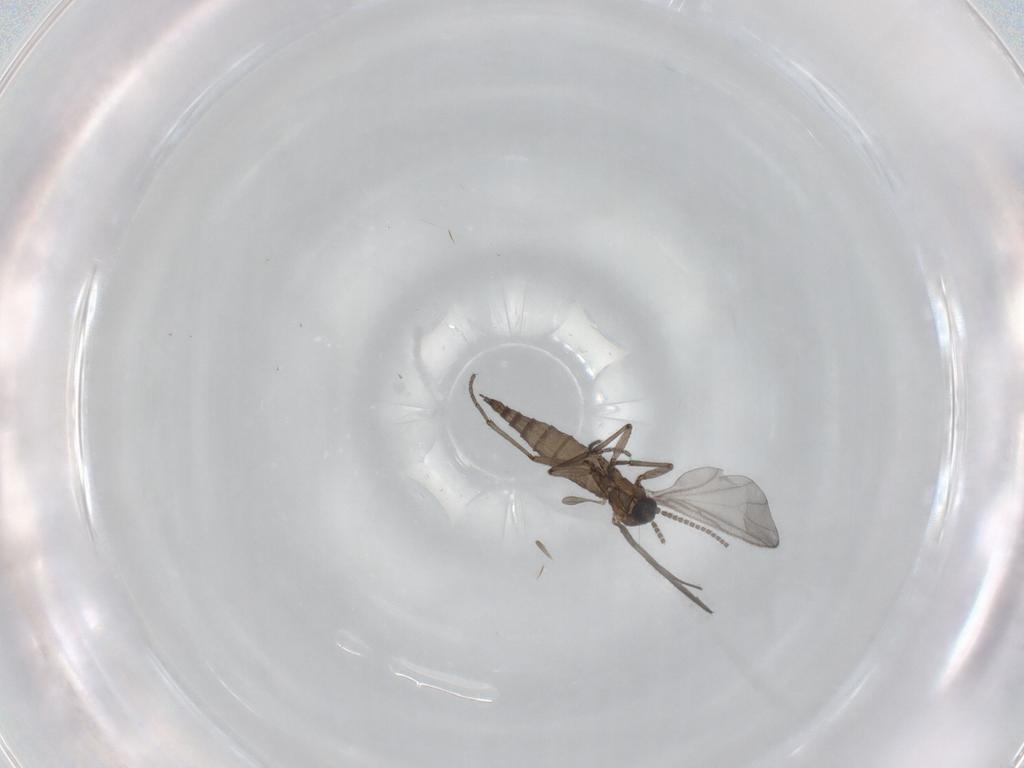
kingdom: Animalia
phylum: Arthropoda
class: Insecta
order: Diptera
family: Sciaridae
